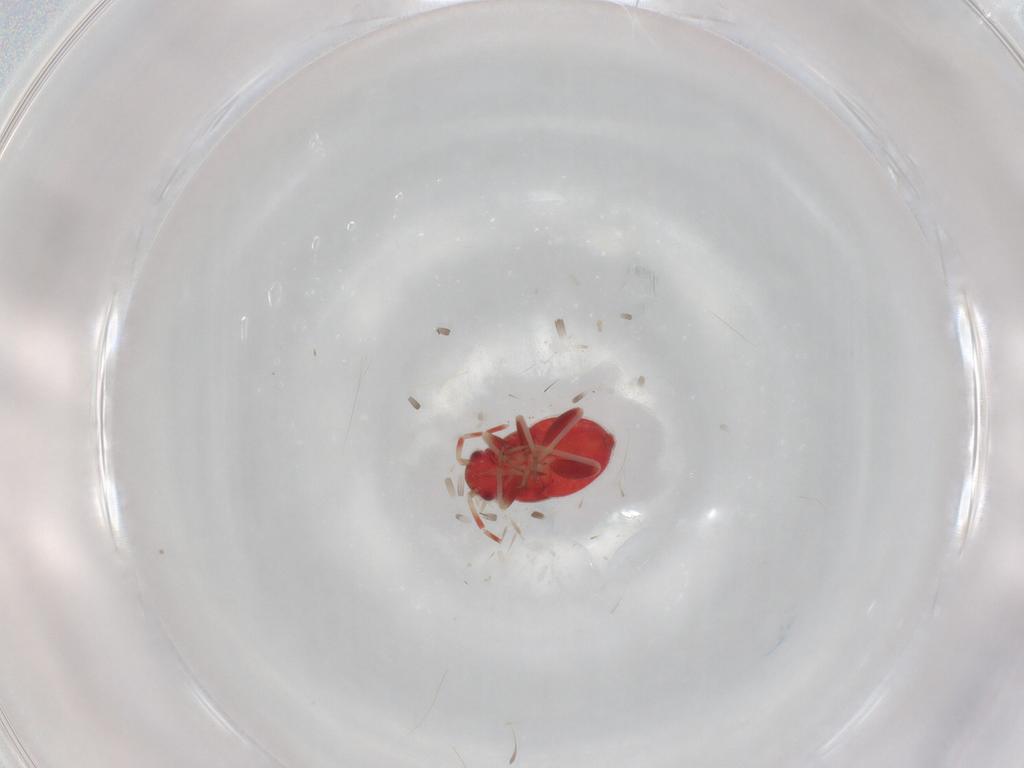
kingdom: Animalia
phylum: Arthropoda
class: Insecta
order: Hemiptera
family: Miridae
